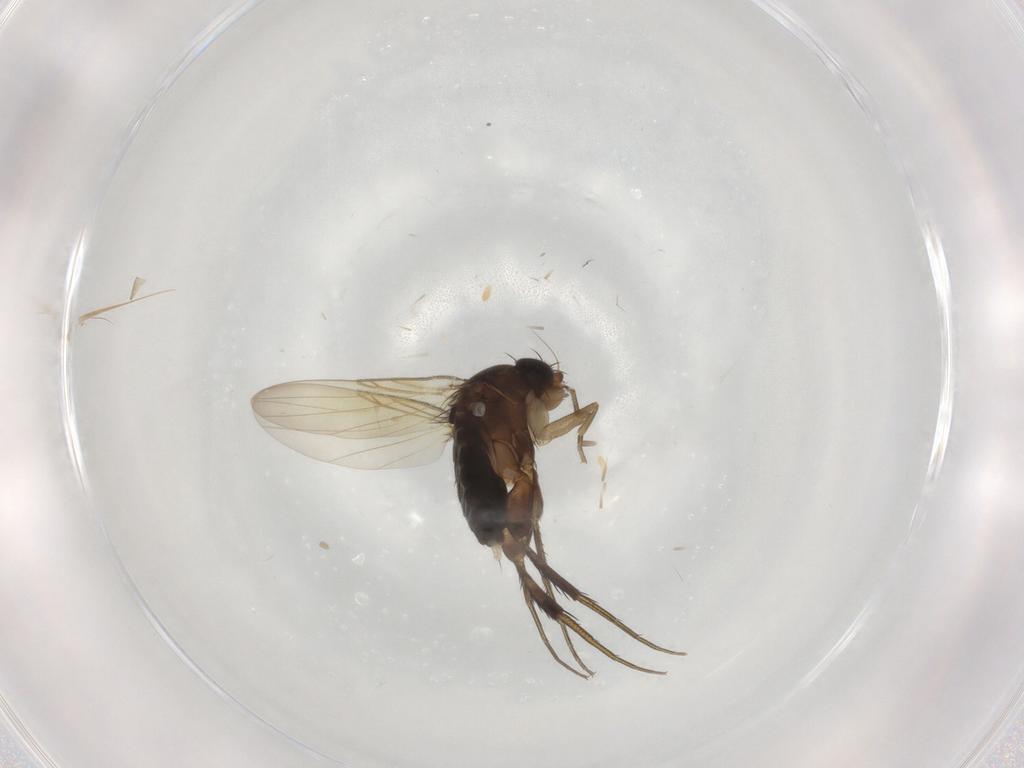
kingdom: Animalia
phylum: Arthropoda
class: Insecta
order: Diptera
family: Phoridae
